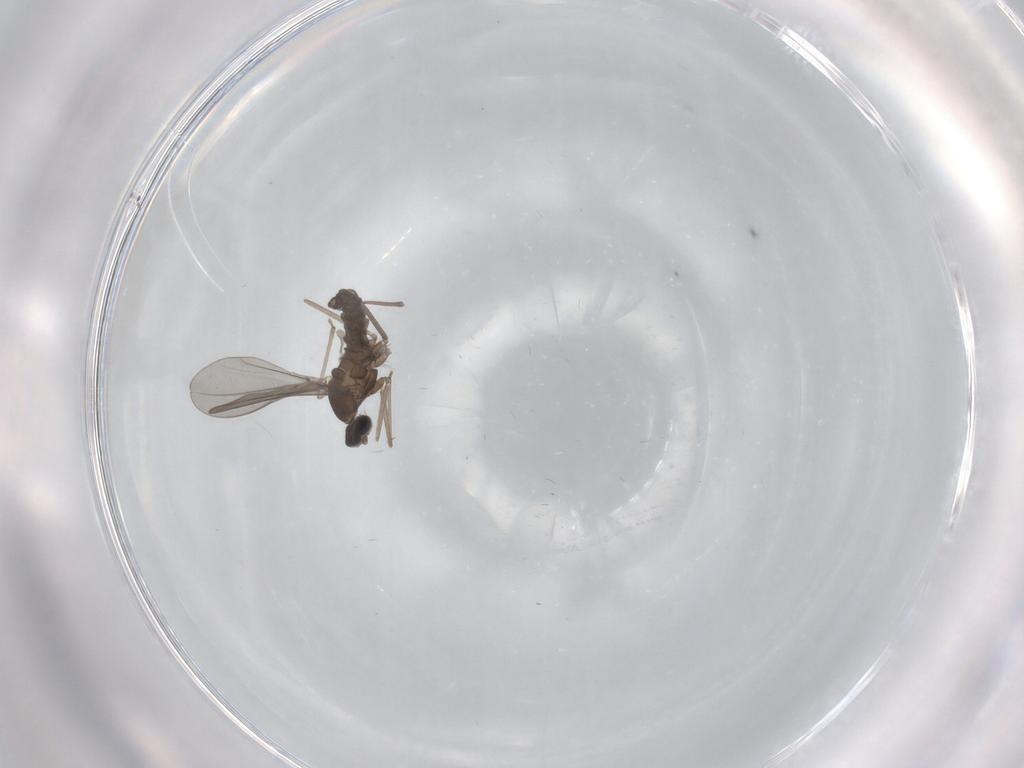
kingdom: Animalia
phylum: Arthropoda
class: Insecta
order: Diptera
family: Cecidomyiidae
